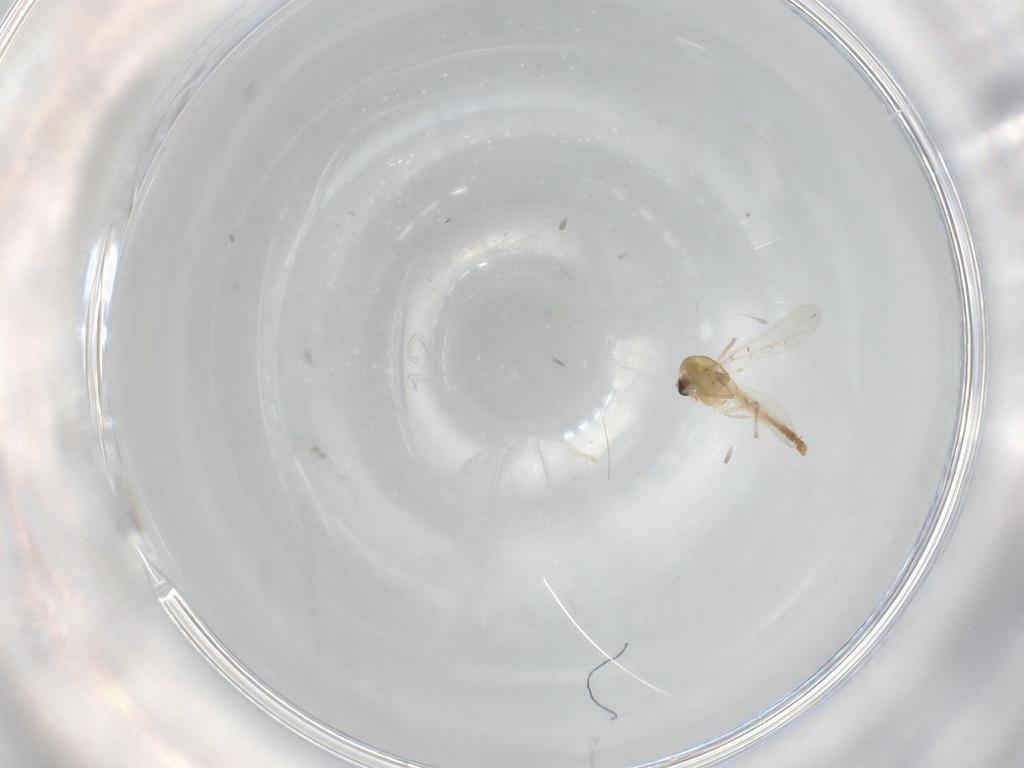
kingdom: Animalia
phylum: Arthropoda
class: Insecta
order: Diptera
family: Chironomidae
